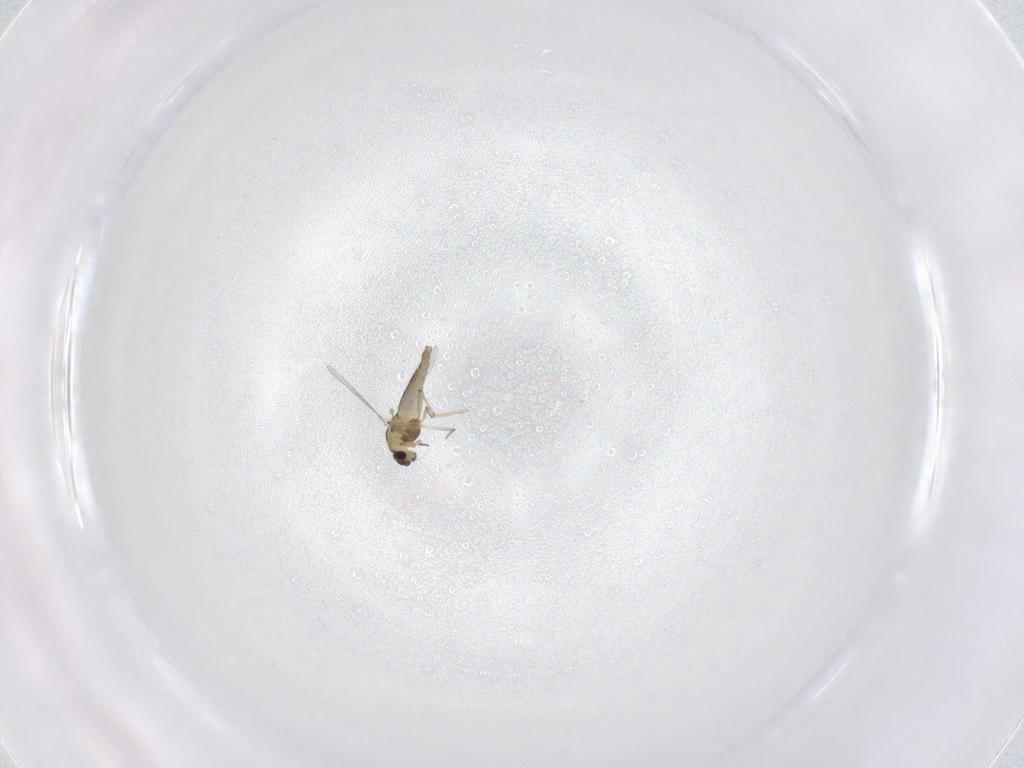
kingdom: Animalia
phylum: Arthropoda
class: Insecta
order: Diptera
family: Chironomidae
